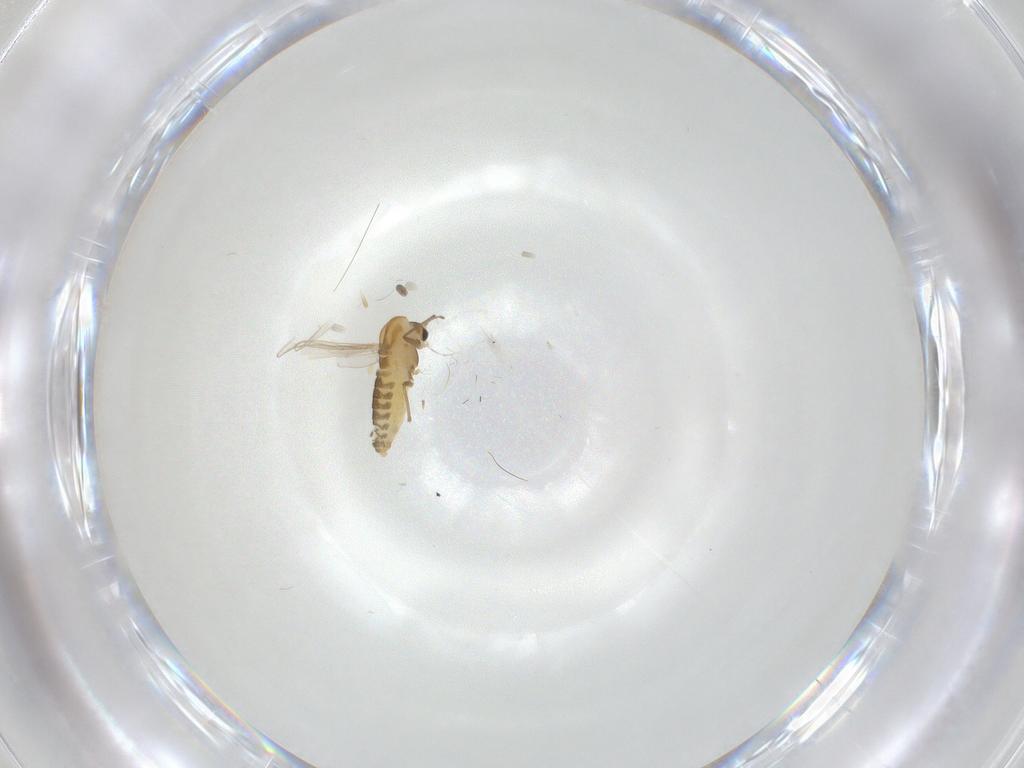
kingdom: Animalia
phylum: Arthropoda
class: Insecta
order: Diptera
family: Chironomidae
